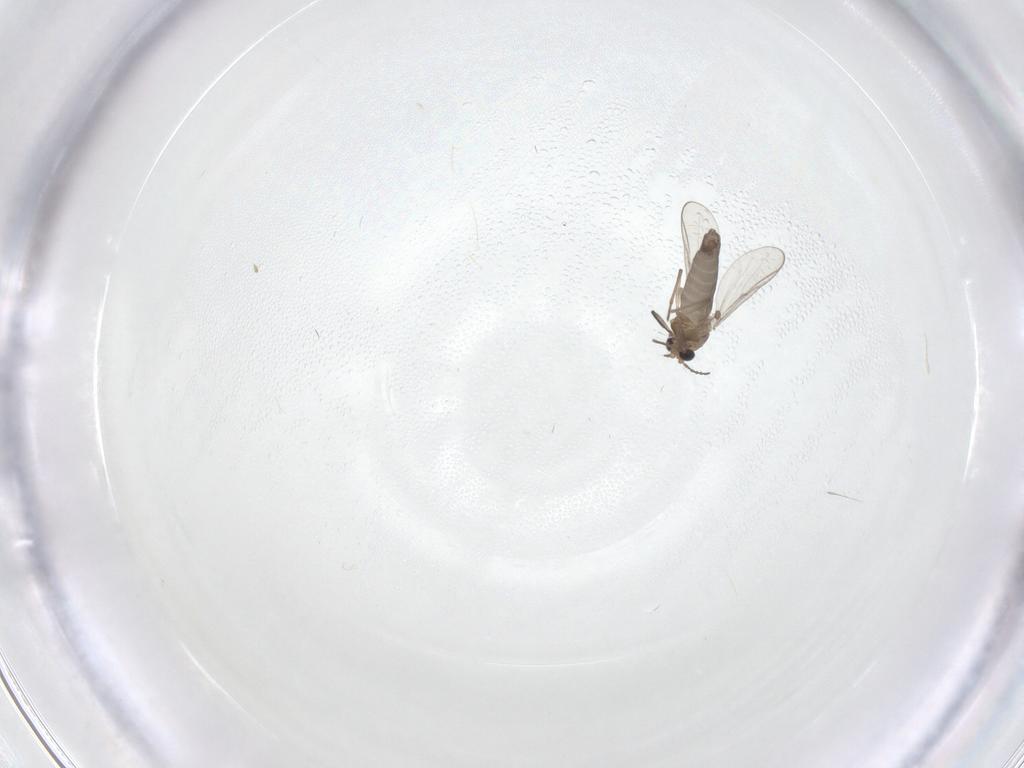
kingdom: Animalia
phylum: Arthropoda
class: Insecta
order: Diptera
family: Chironomidae
